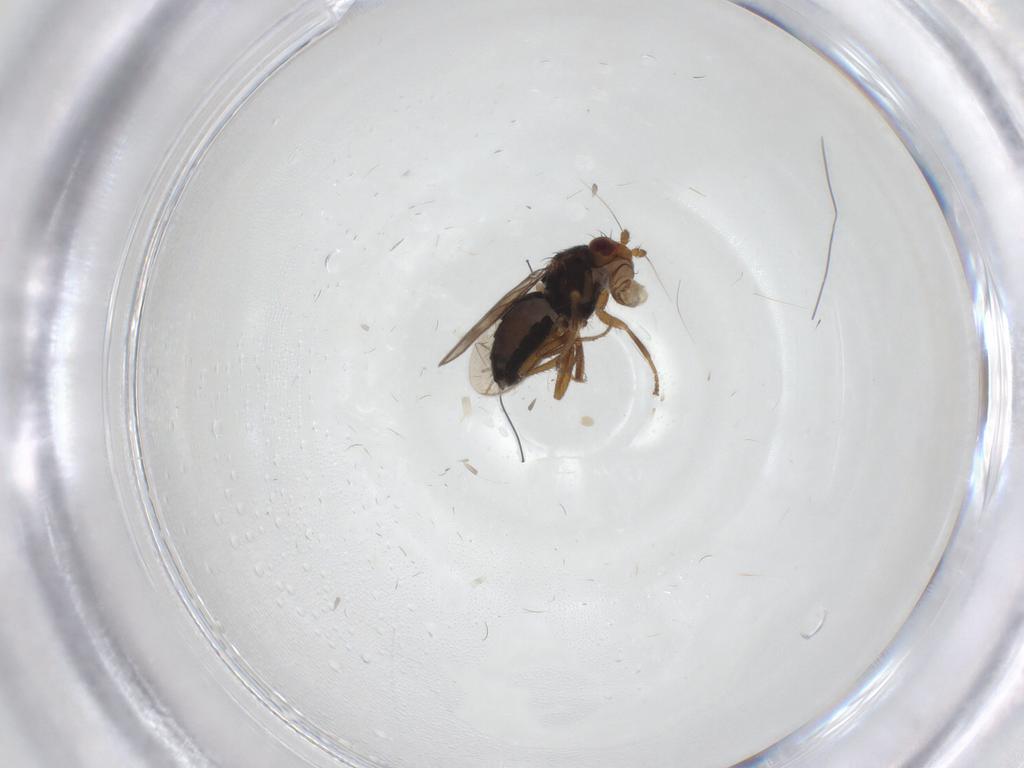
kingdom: Animalia
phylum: Arthropoda
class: Insecta
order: Diptera
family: Sphaeroceridae
